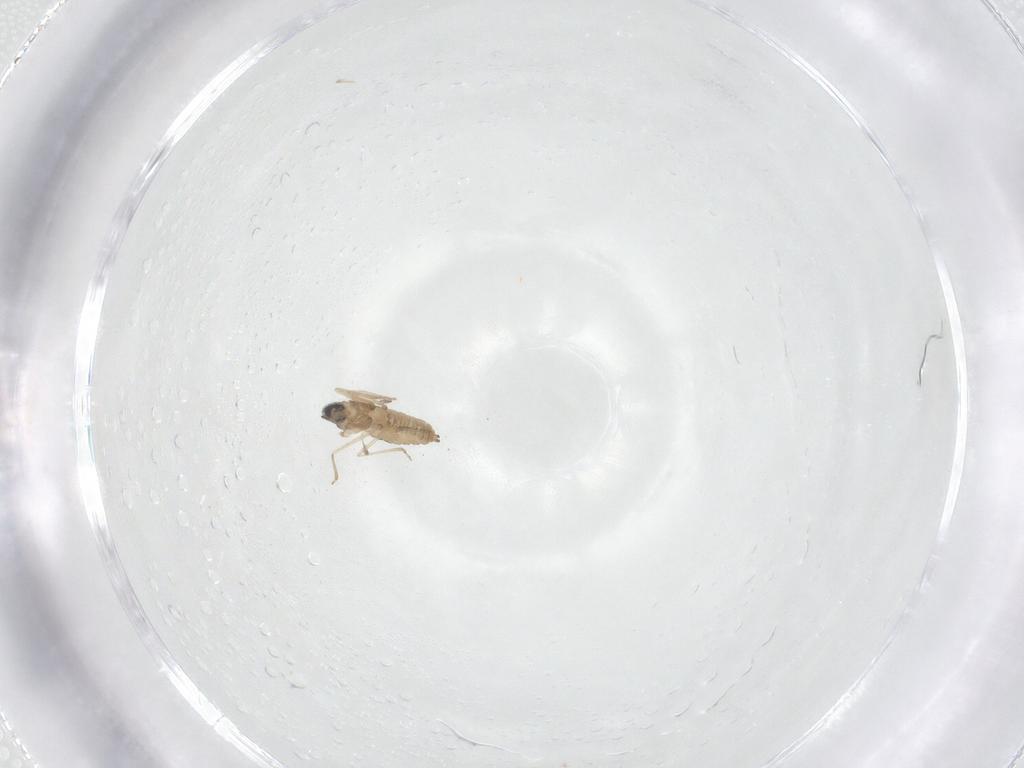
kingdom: Animalia
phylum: Arthropoda
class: Insecta
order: Diptera
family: Cecidomyiidae
